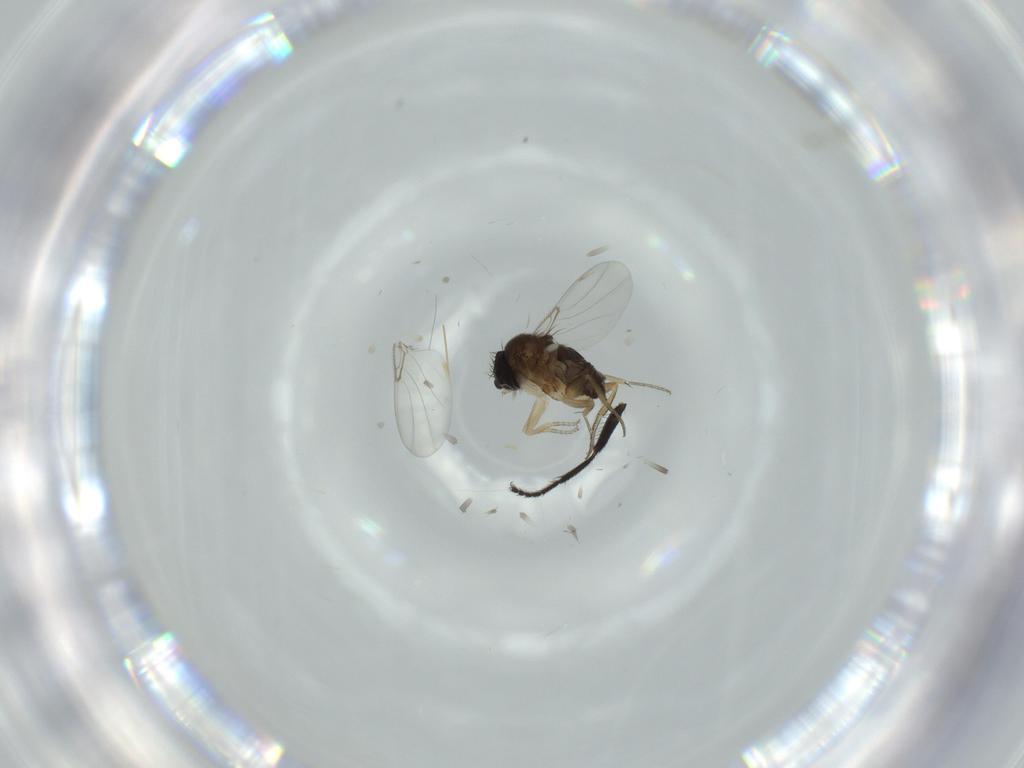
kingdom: Animalia
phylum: Arthropoda
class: Insecta
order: Diptera
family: Phoridae
